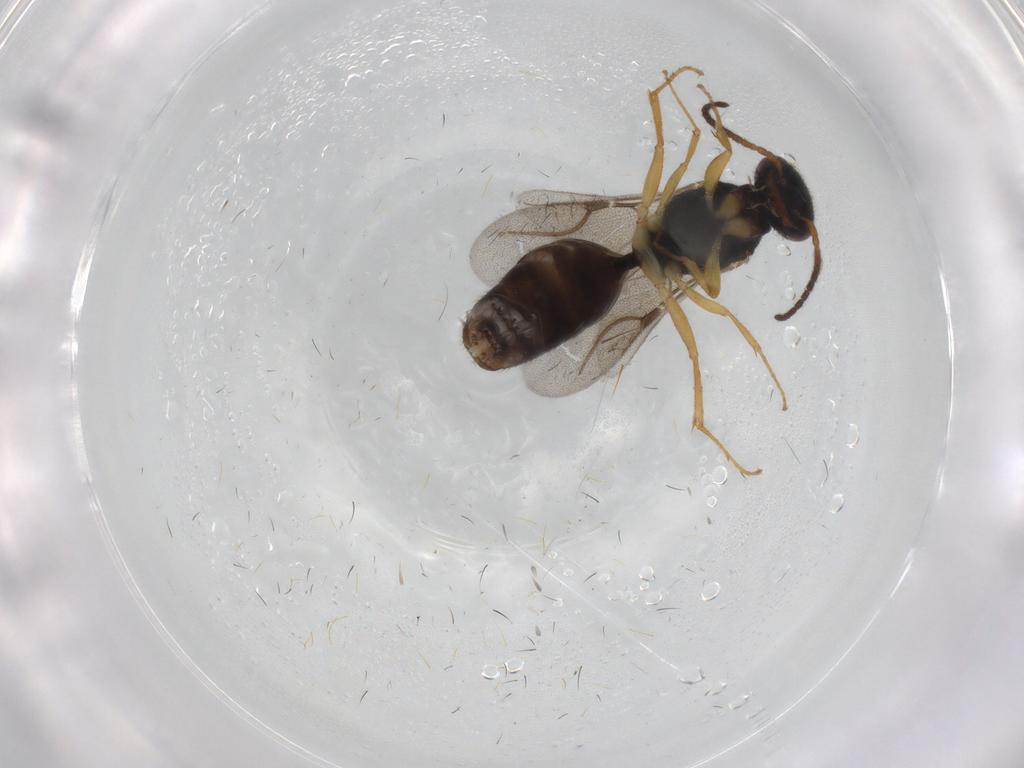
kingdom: Animalia
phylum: Arthropoda
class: Insecta
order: Hymenoptera
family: Bethylidae
